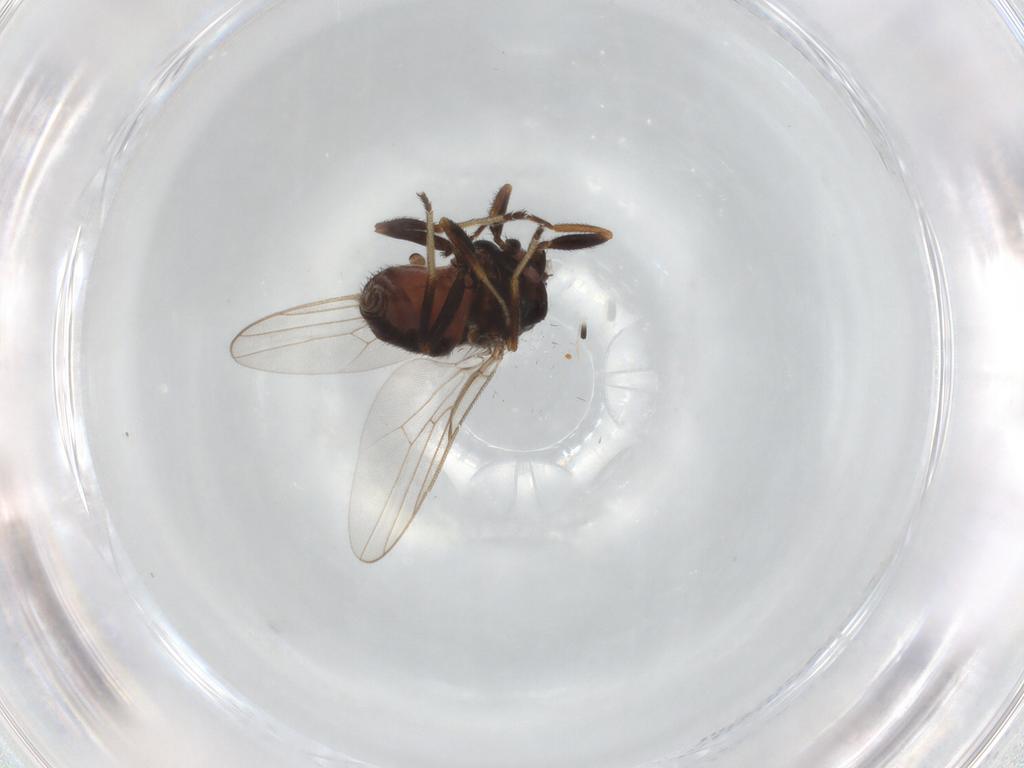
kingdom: Animalia
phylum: Arthropoda
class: Insecta
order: Diptera
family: Chloropidae
